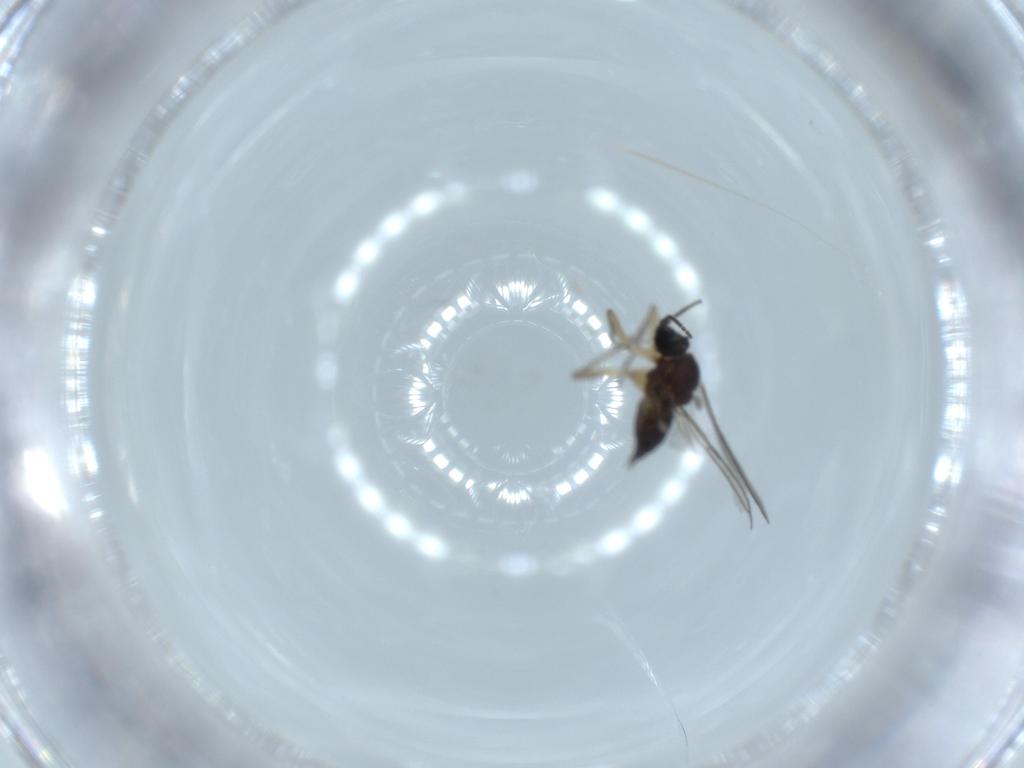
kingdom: Animalia
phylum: Arthropoda
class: Insecta
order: Diptera
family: Sciaridae
